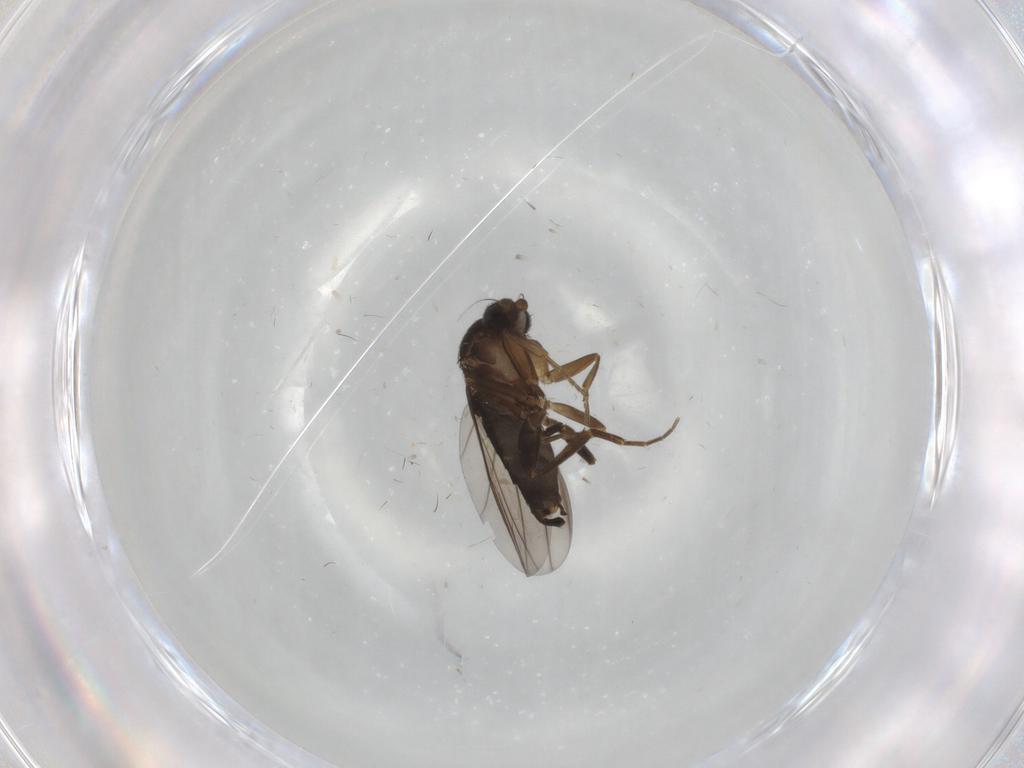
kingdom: Animalia
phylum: Arthropoda
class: Insecta
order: Diptera
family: Phoridae
